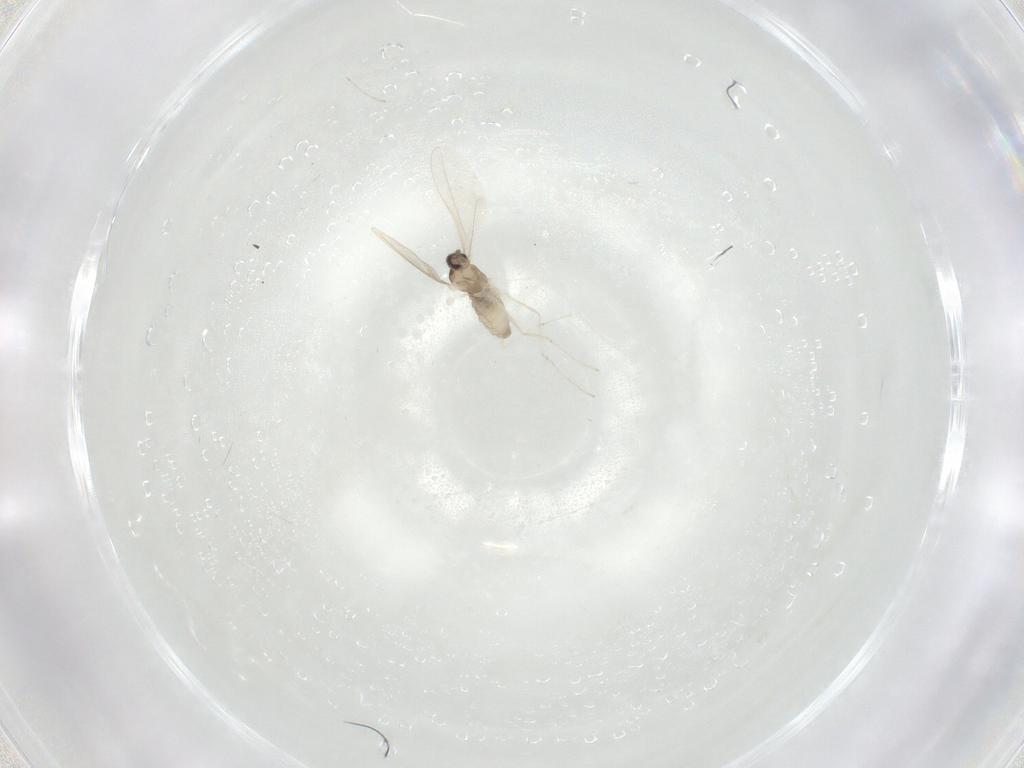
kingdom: Animalia
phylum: Arthropoda
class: Insecta
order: Diptera
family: Cecidomyiidae
